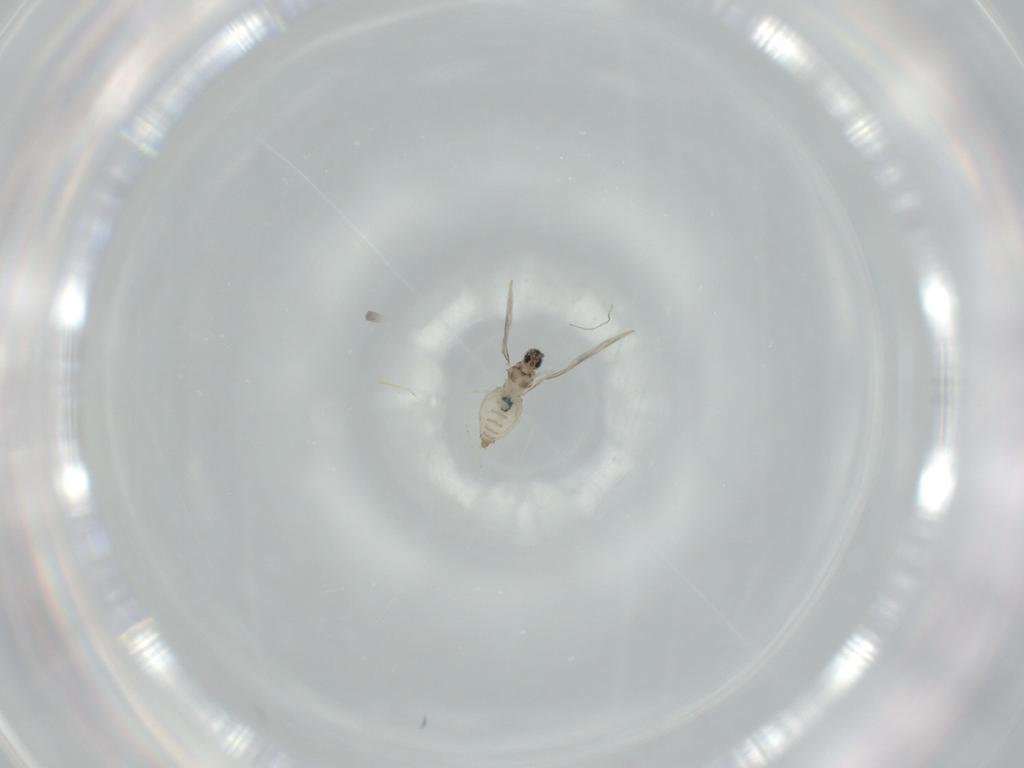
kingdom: Animalia
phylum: Arthropoda
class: Insecta
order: Diptera
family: Cecidomyiidae
